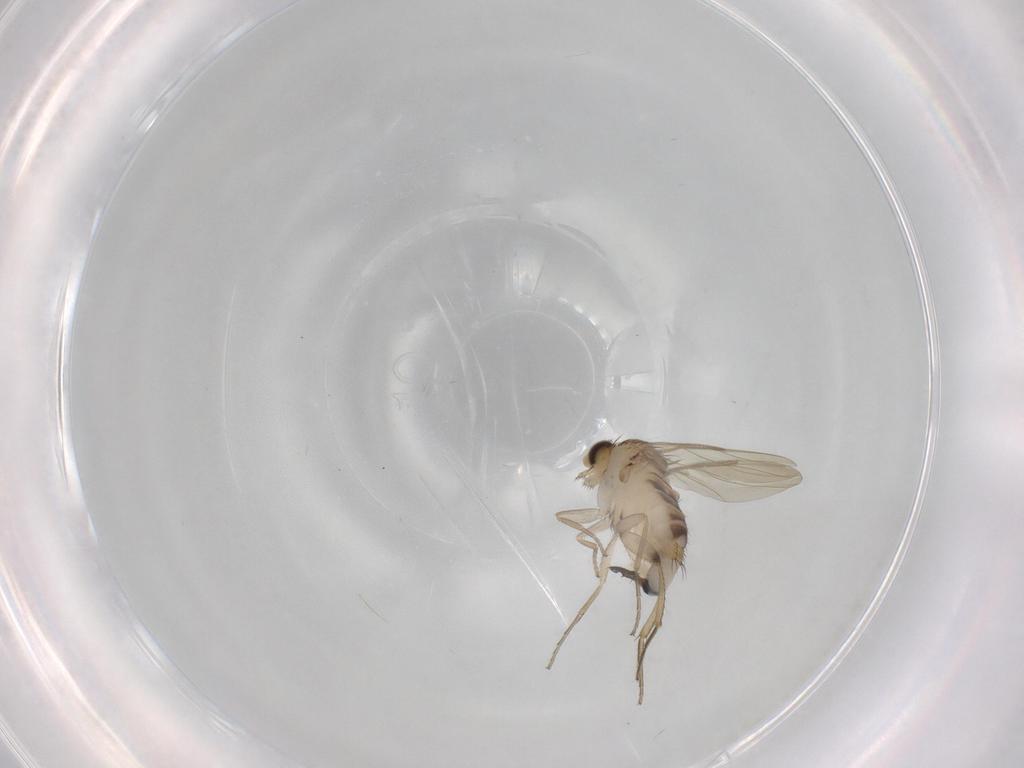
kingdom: Animalia
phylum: Arthropoda
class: Insecta
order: Diptera
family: Phoridae
